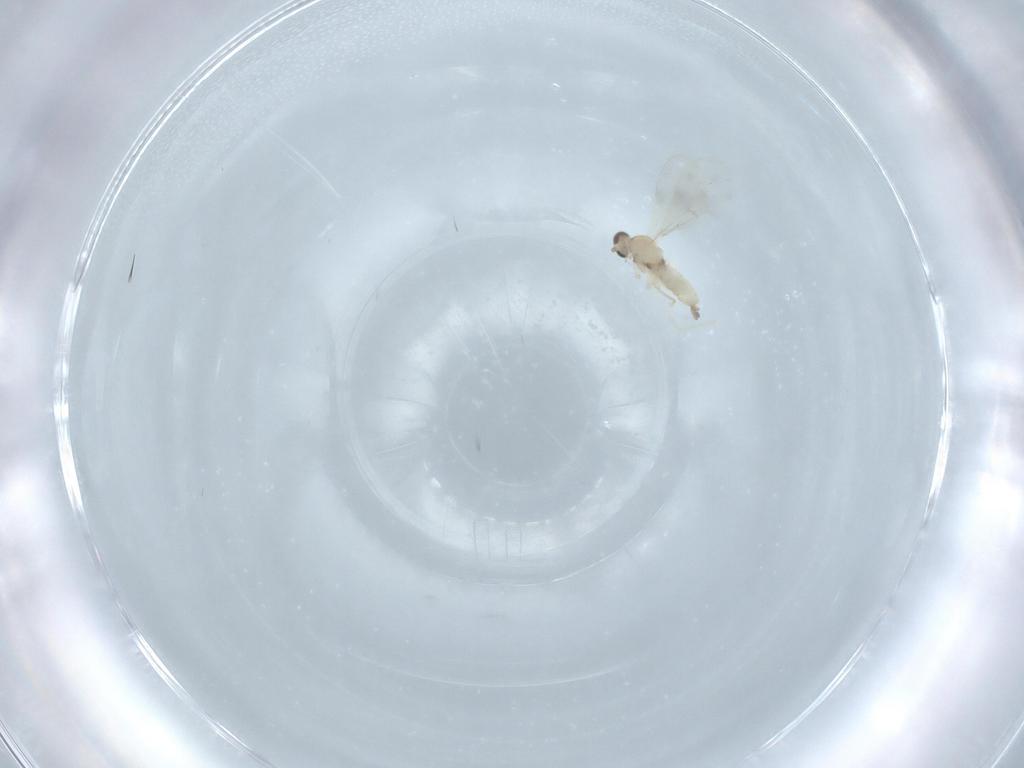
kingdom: Animalia
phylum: Arthropoda
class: Insecta
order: Diptera
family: Cecidomyiidae
